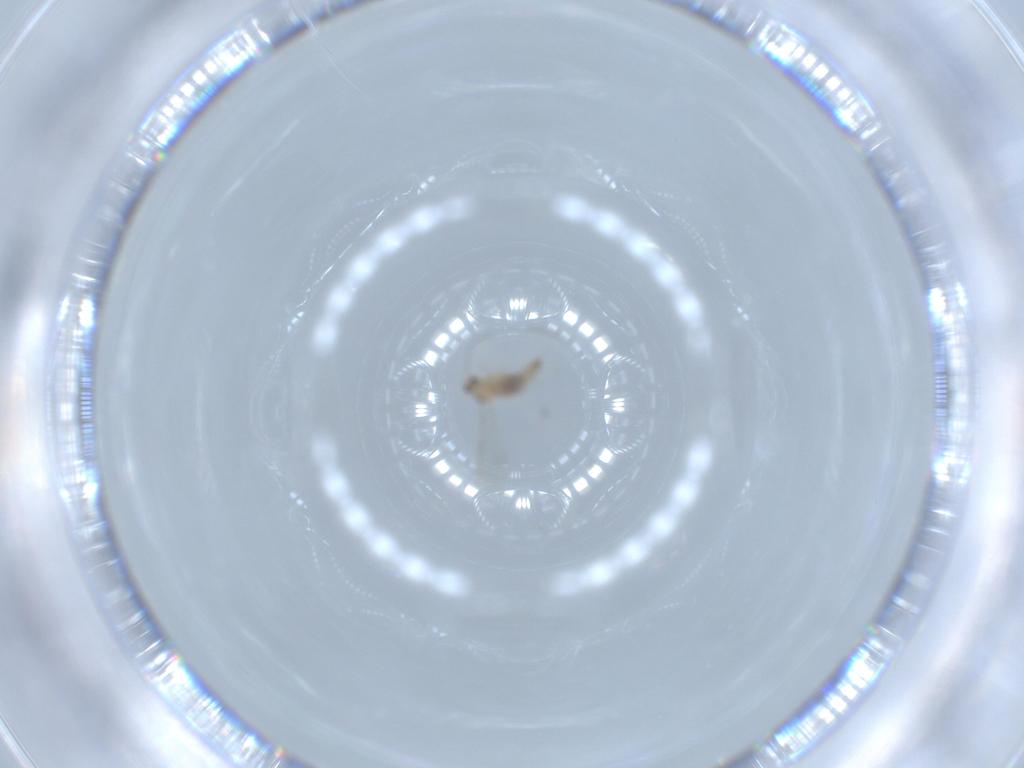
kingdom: Animalia
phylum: Arthropoda
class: Insecta
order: Diptera
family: Cecidomyiidae
